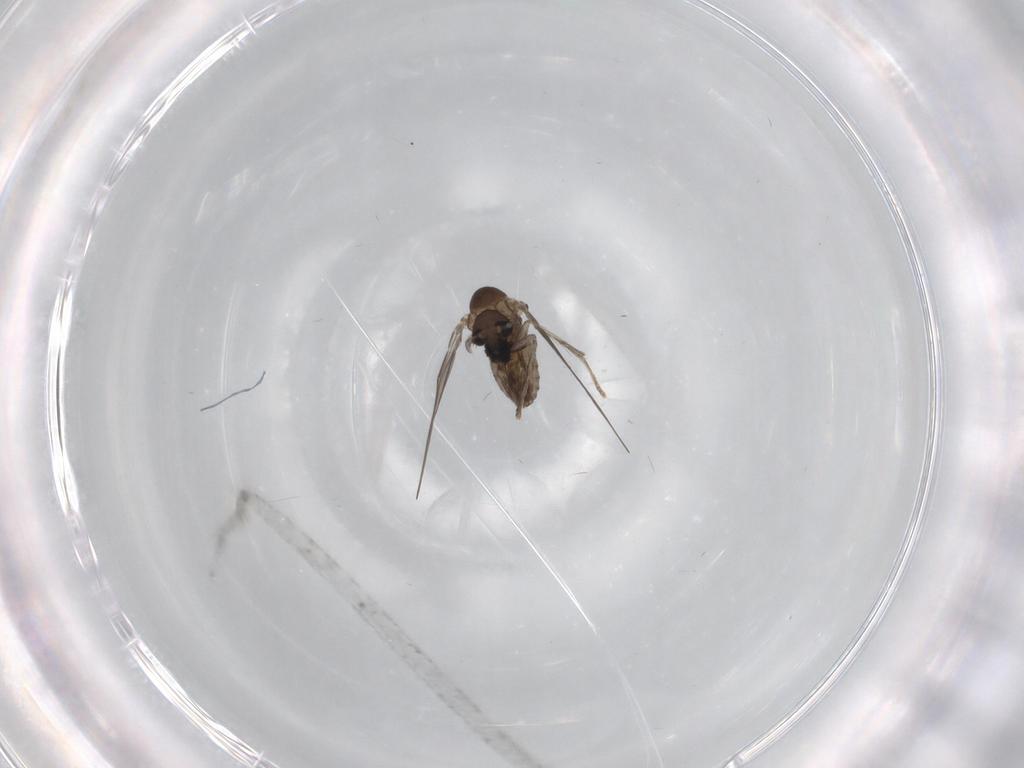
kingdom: Animalia
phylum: Arthropoda
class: Insecta
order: Diptera
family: Psychodidae
